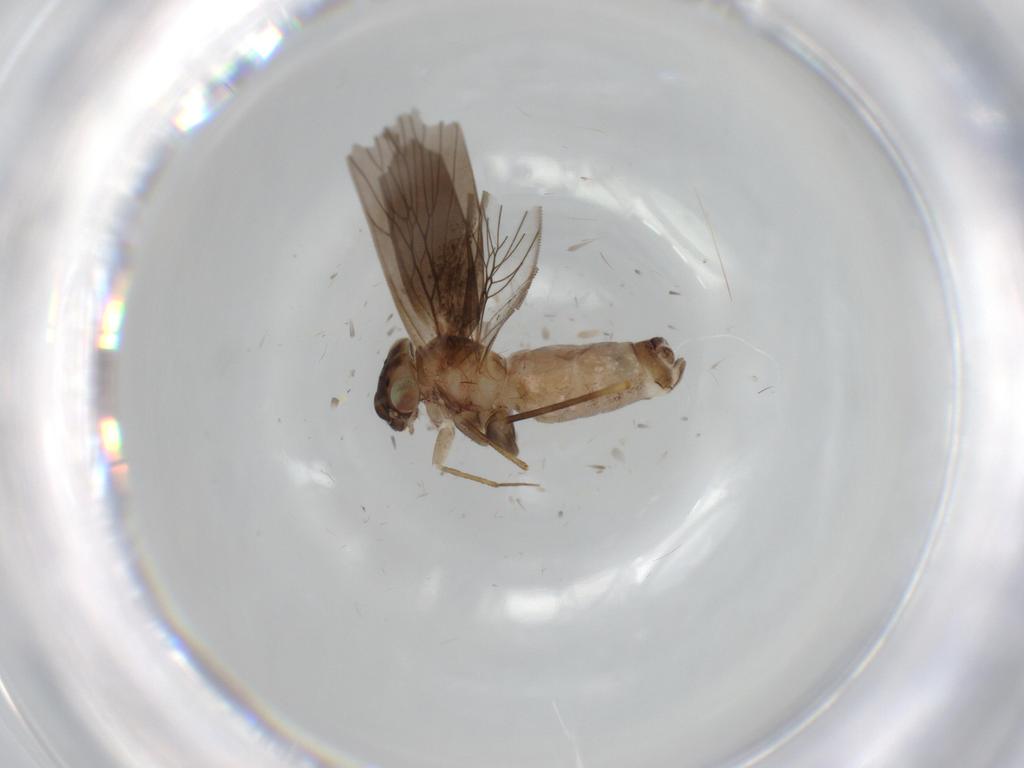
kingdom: Animalia
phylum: Arthropoda
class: Insecta
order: Psocodea
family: Lepidopsocidae
